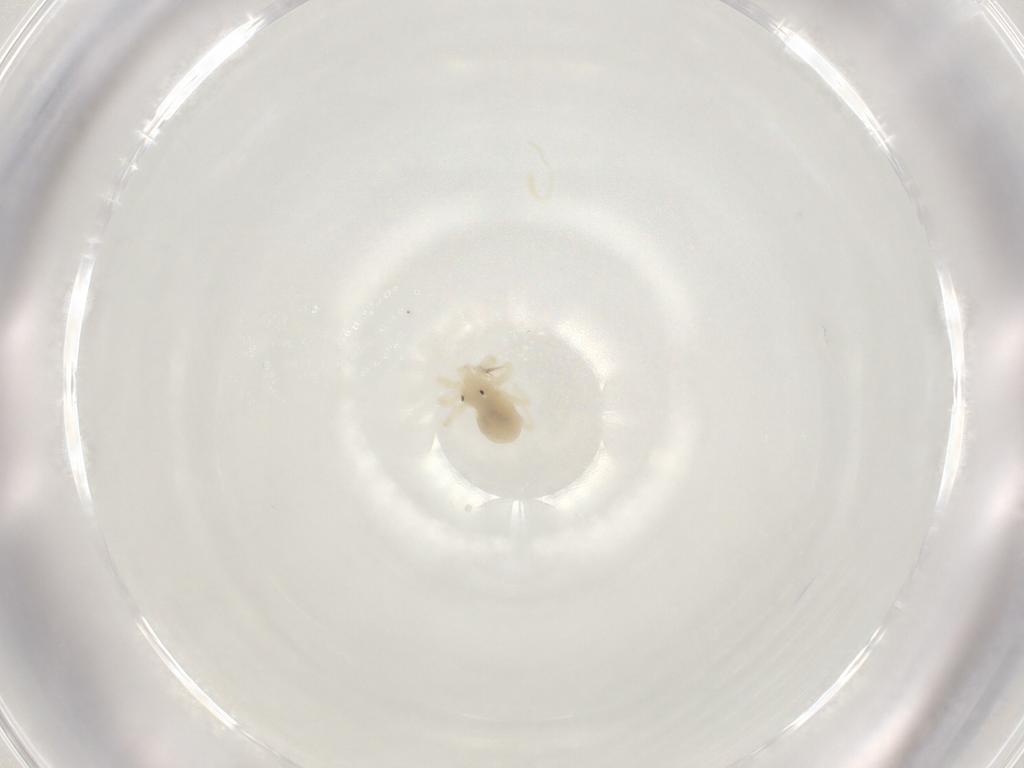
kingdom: Animalia
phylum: Arthropoda
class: Arachnida
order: Trombidiformes
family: Anystidae
